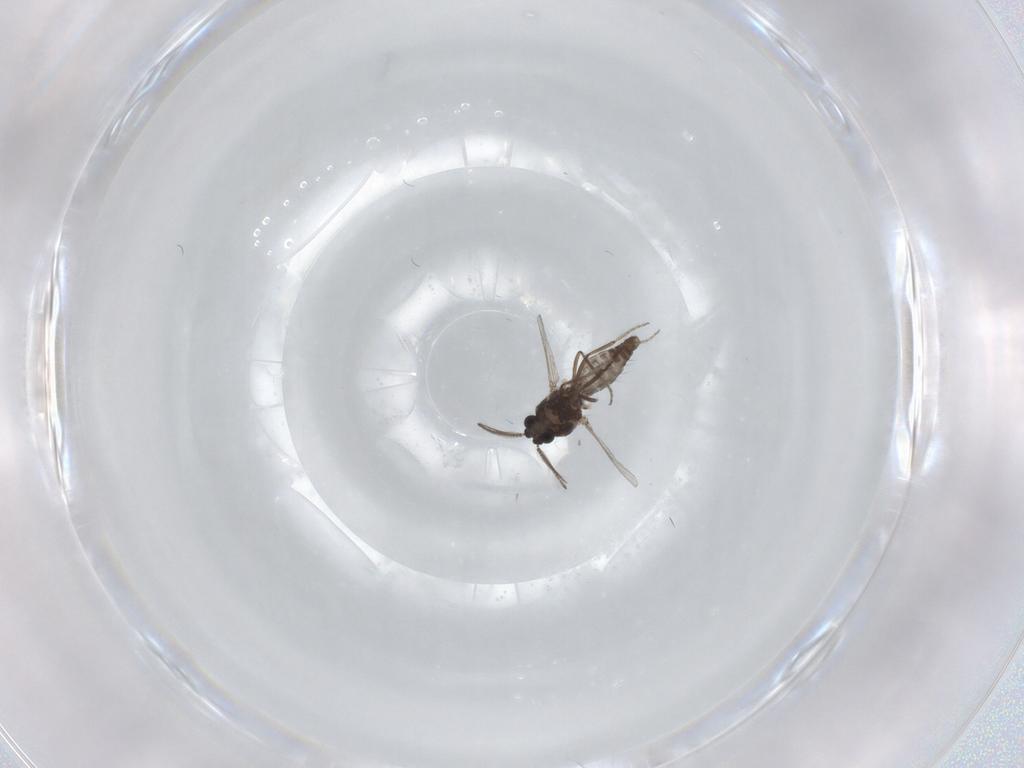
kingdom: Animalia
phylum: Arthropoda
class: Insecta
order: Diptera
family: Ceratopogonidae
